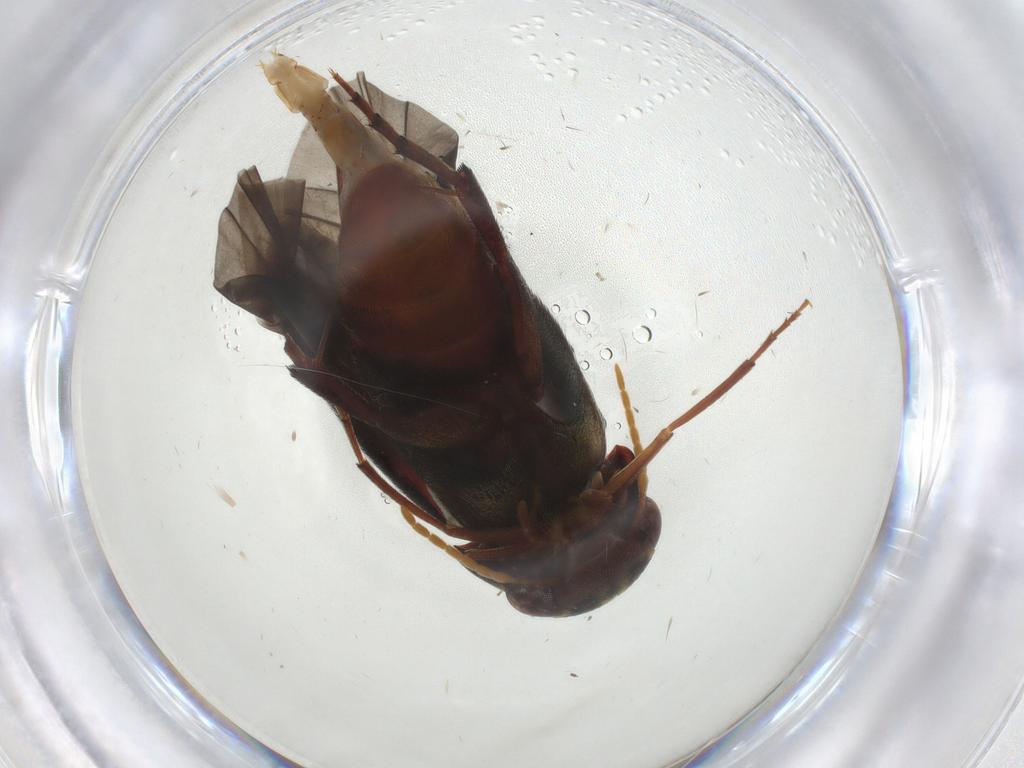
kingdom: Animalia
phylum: Arthropoda
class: Insecta
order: Coleoptera
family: Mordellidae
